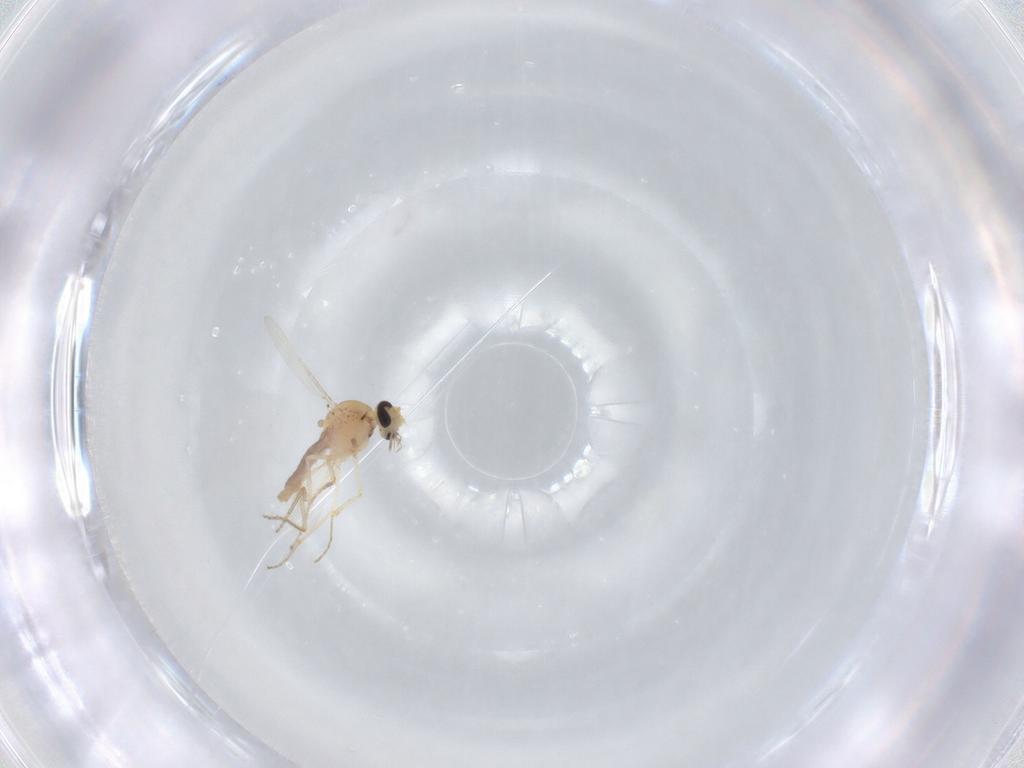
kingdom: Animalia
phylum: Arthropoda
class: Insecta
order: Diptera
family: Ceratopogonidae
